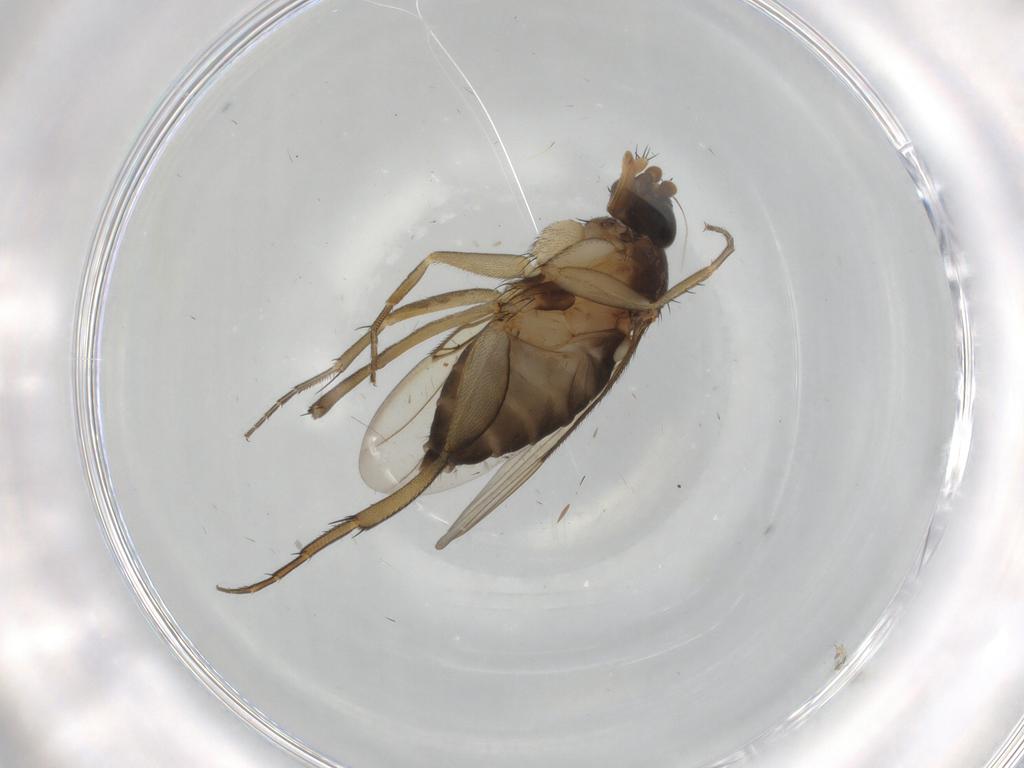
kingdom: Animalia
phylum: Arthropoda
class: Insecta
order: Diptera
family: Phoridae
